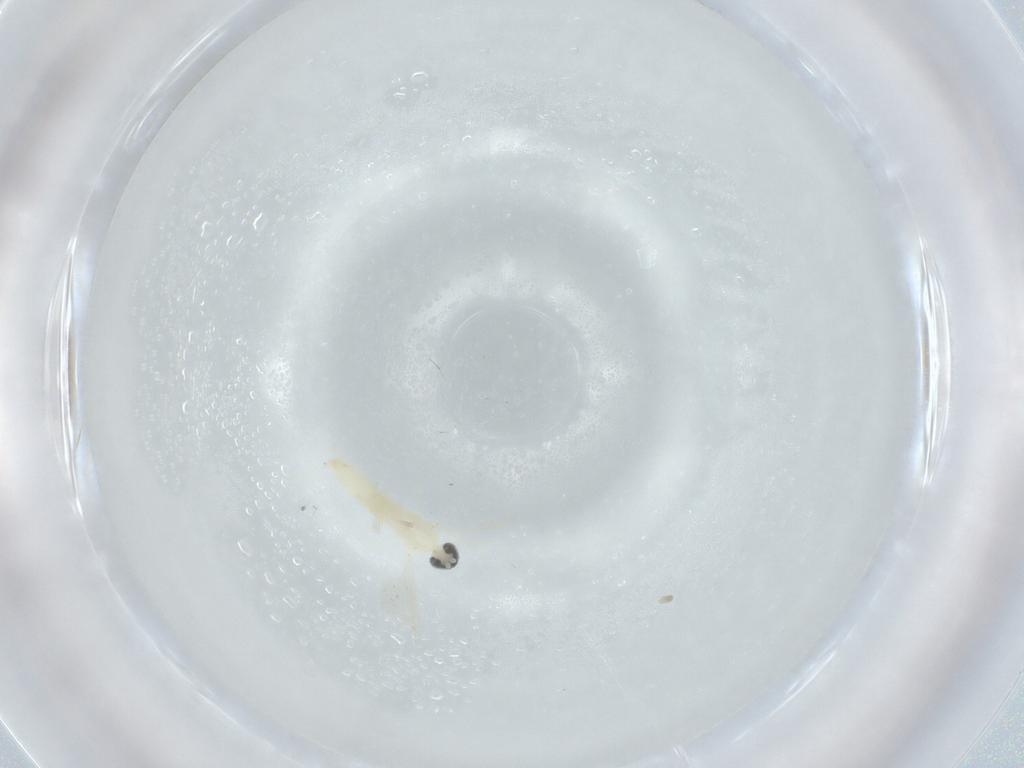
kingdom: Animalia
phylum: Arthropoda
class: Insecta
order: Diptera
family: Cecidomyiidae
